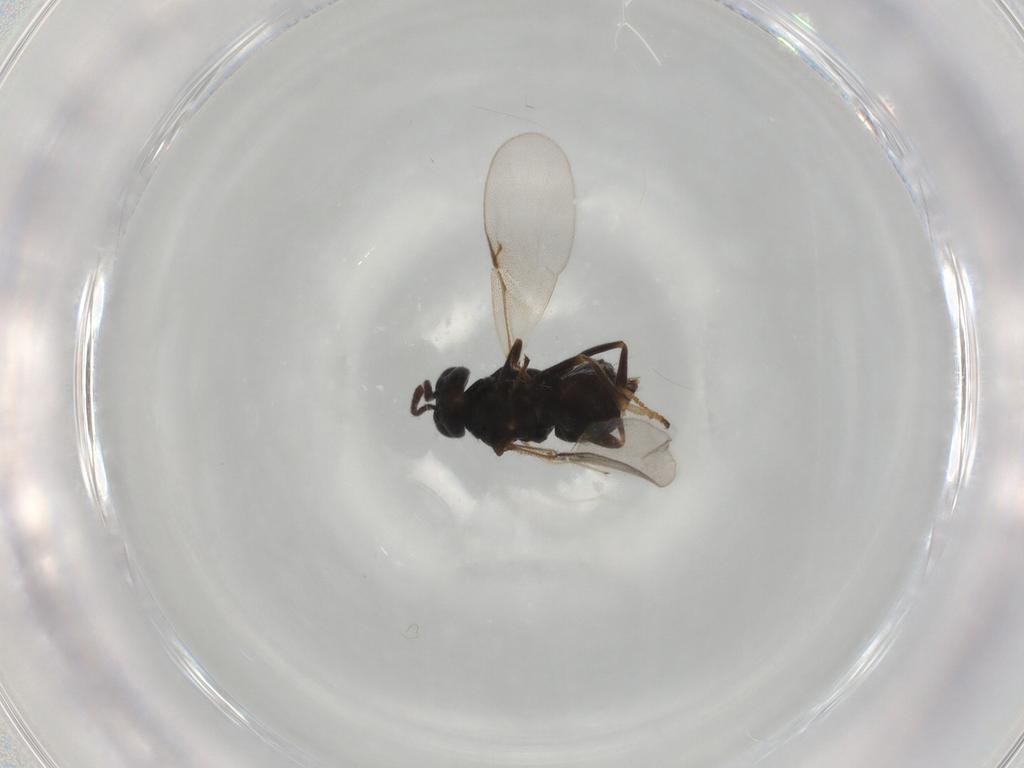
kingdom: Animalia
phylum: Arthropoda
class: Insecta
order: Hymenoptera
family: Encyrtidae
